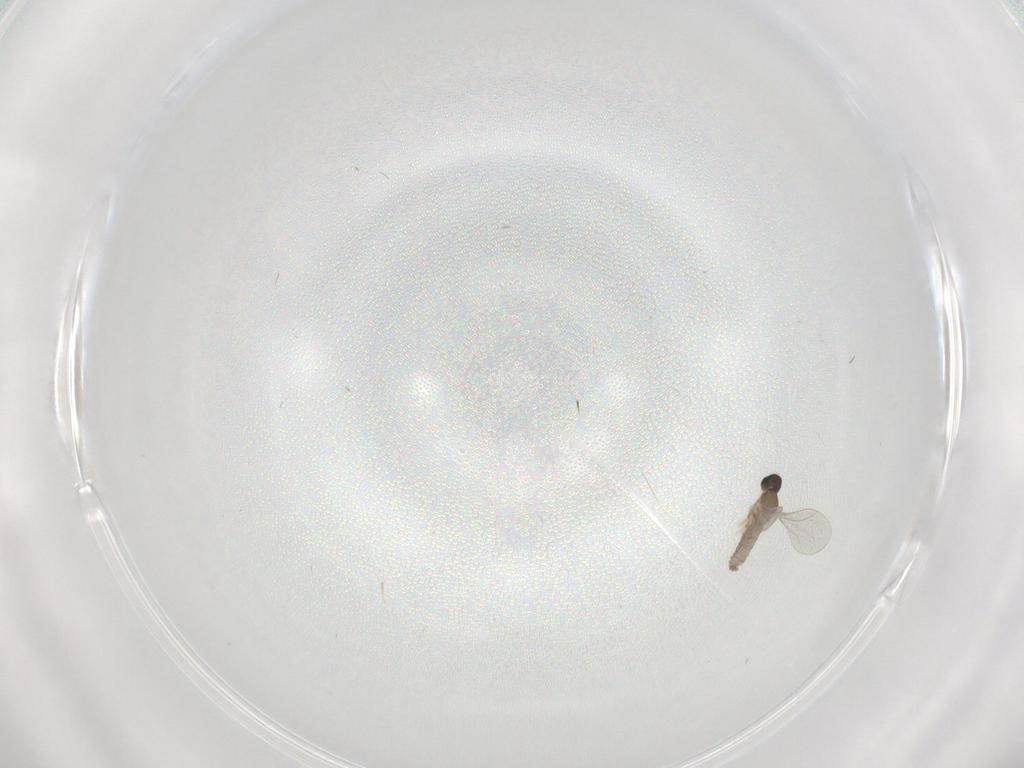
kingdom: Animalia
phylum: Arthropoda
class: Insecta
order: Diptera
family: Cecidomyiidae
